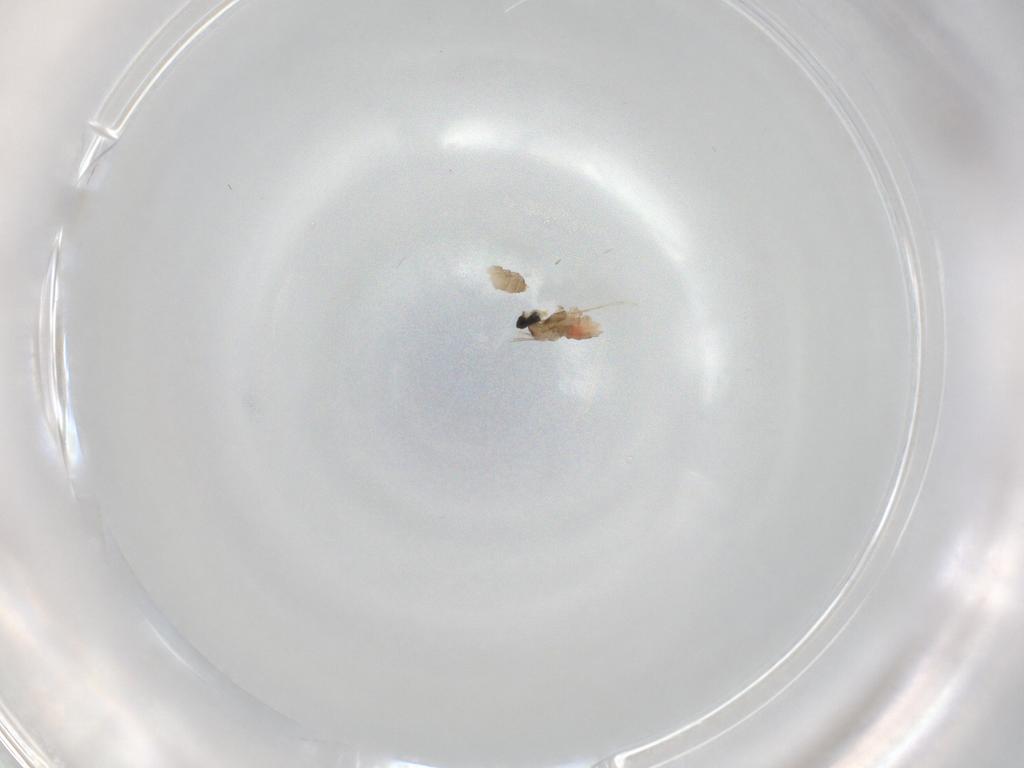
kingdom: Animalia
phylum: Arthropoda
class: Insecta
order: Diptera
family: Cecidomyiidae
